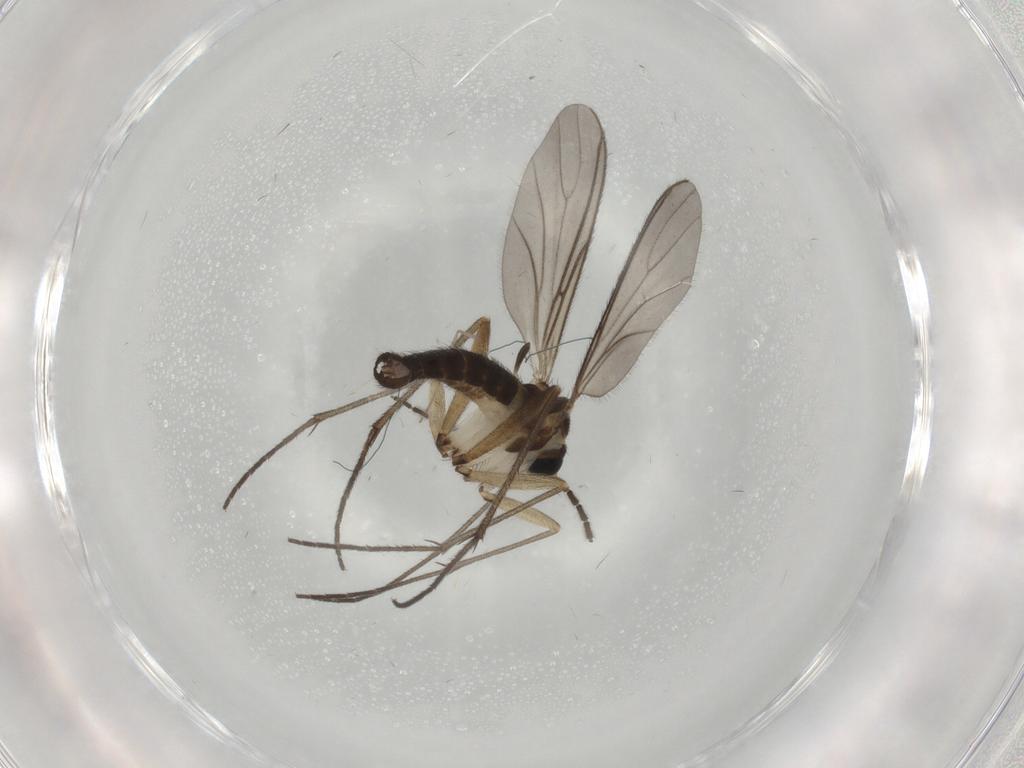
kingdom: Animalia
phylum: Arthropoda
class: Insecta
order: Diptera
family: Sciaridae
